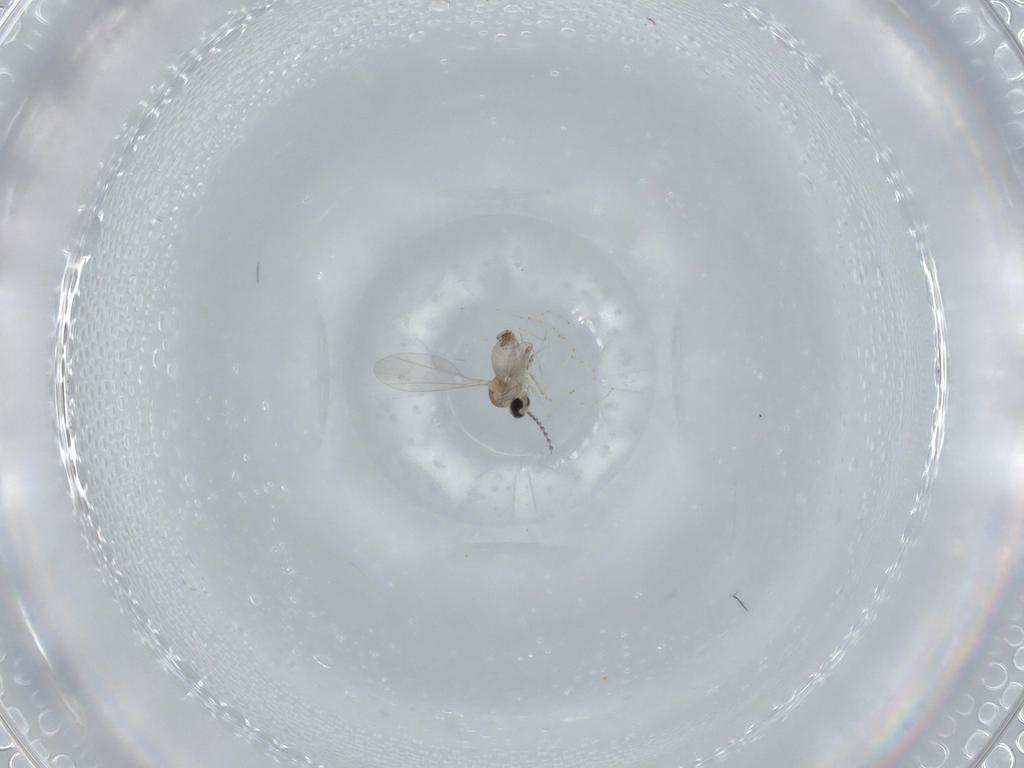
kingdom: Animalia
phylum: Arthropoda
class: Insecta
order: Diptera
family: Cecidomyiidae
